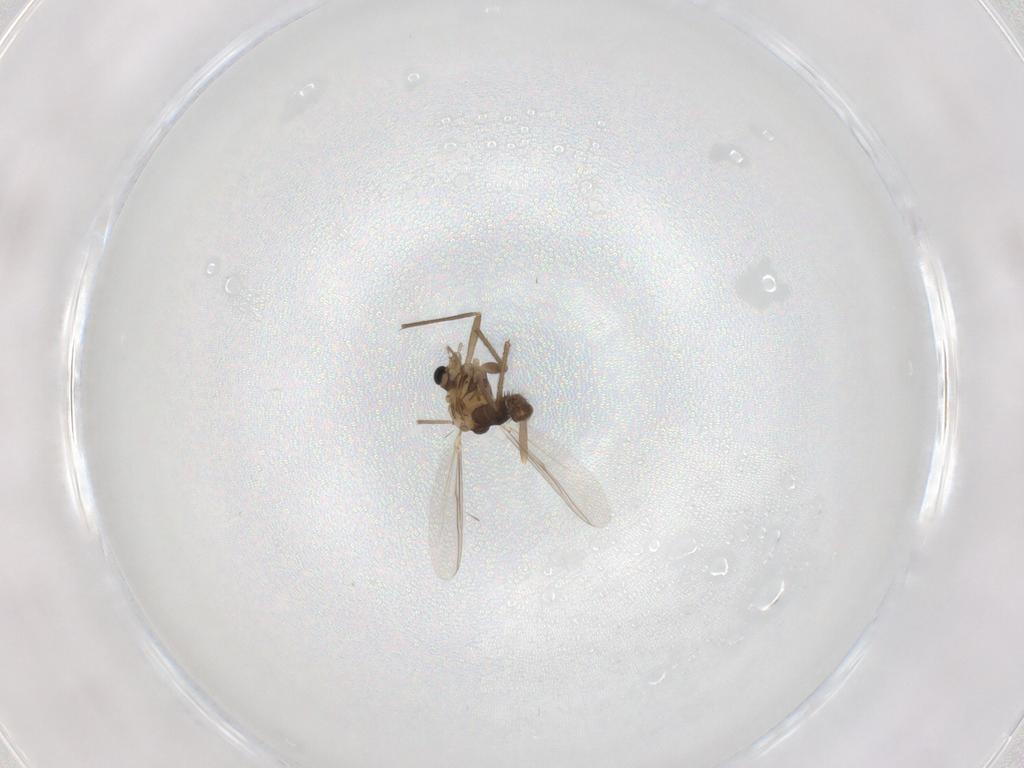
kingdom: Animalia
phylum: Arthropoda
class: Insecta
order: Diptera
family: Chironomidae
